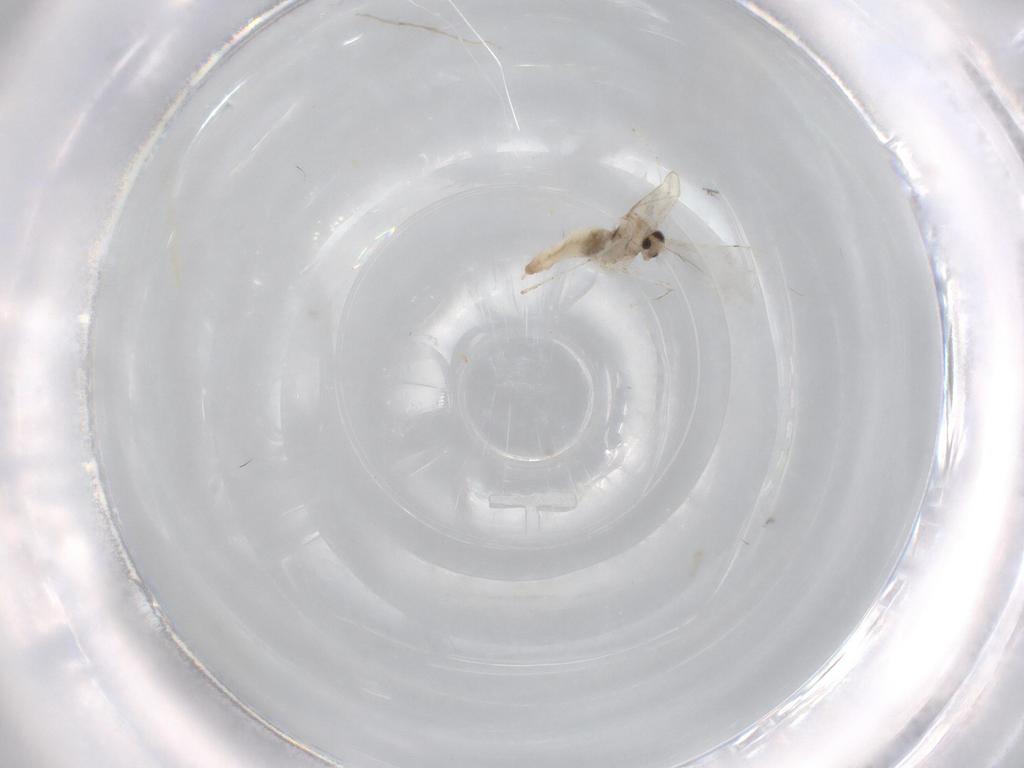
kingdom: Animalia
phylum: Arthropoda
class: Insecta
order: Diptera
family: Cecidomyiidae
